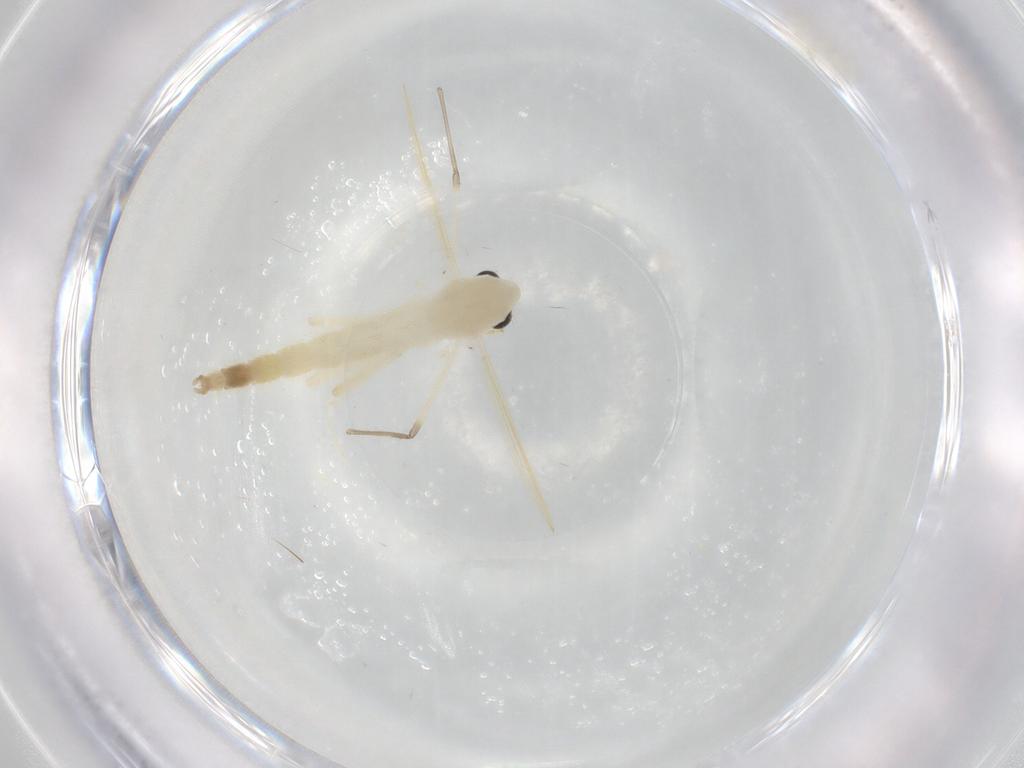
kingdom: Animalia
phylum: Arthropoda
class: Insecta
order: Diptera
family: Chironomidae
